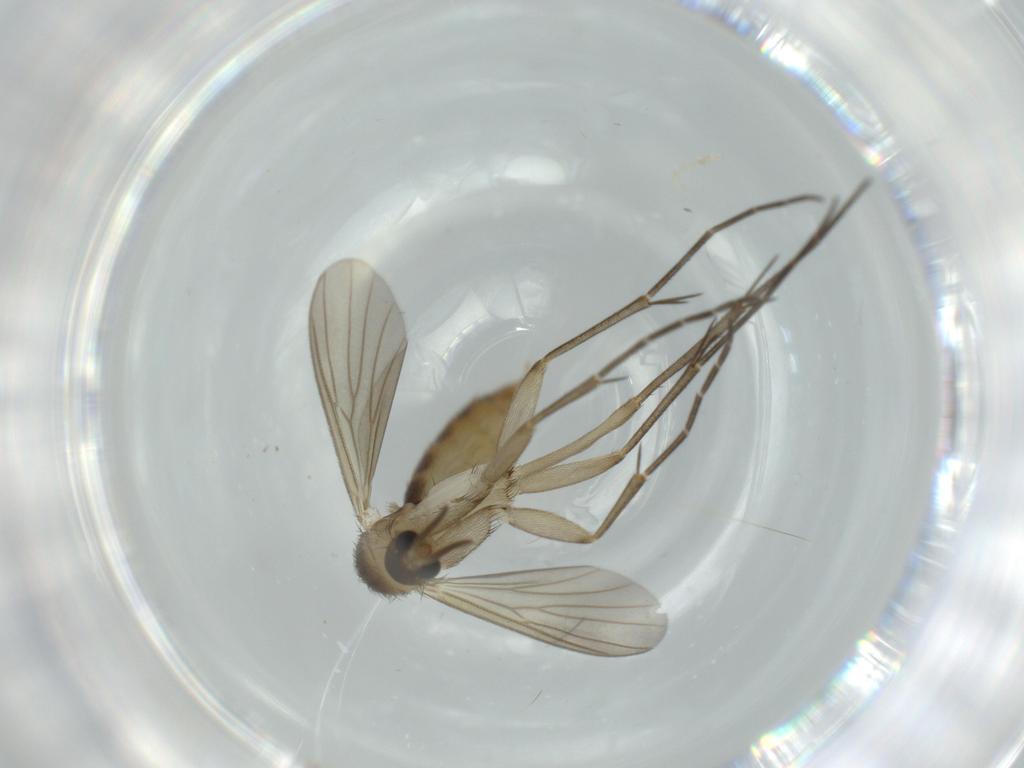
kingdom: Animalia
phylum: Arthropoda
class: Insecta
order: Diptera
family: Mycetophilidae
